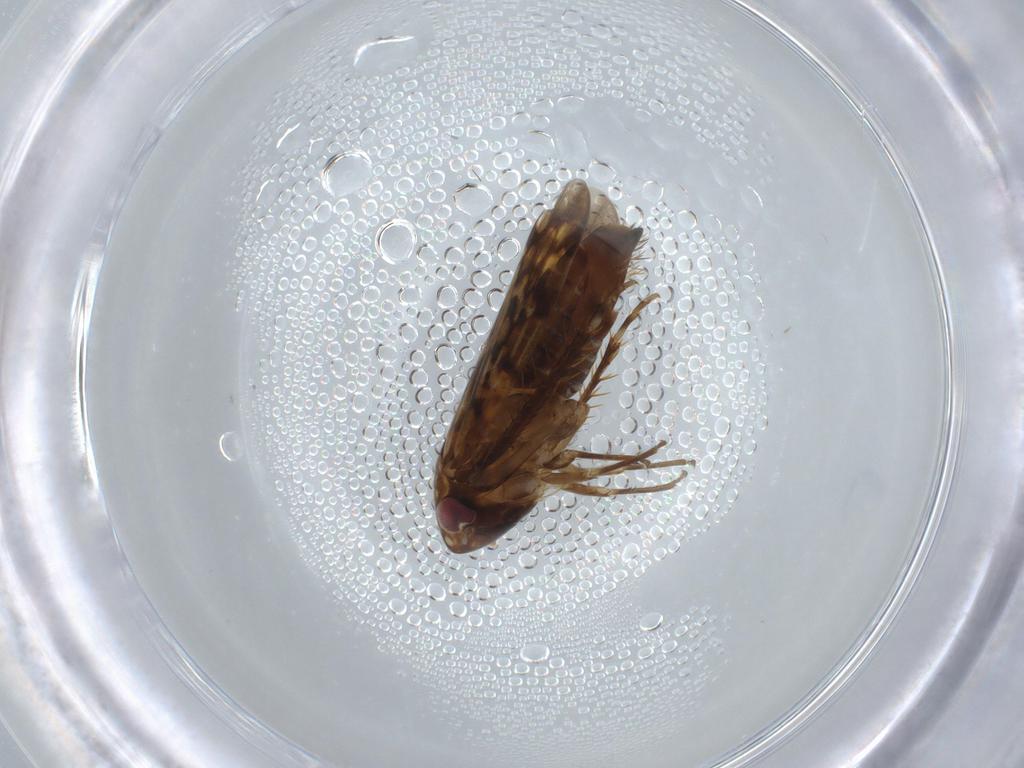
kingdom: Animalia
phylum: Arthropoda
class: Insecta
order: Hemiptera
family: Cicadellidae
